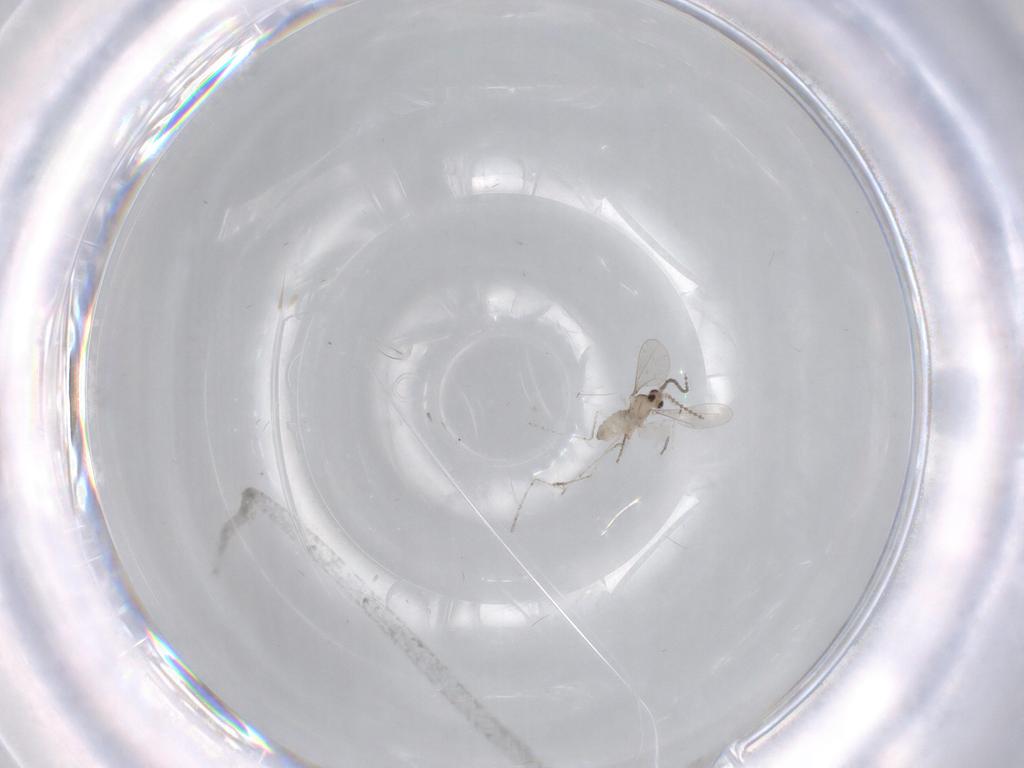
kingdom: Animalia
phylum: Arthropoda
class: Insecta
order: Diptera
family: Cecidomyiidae
